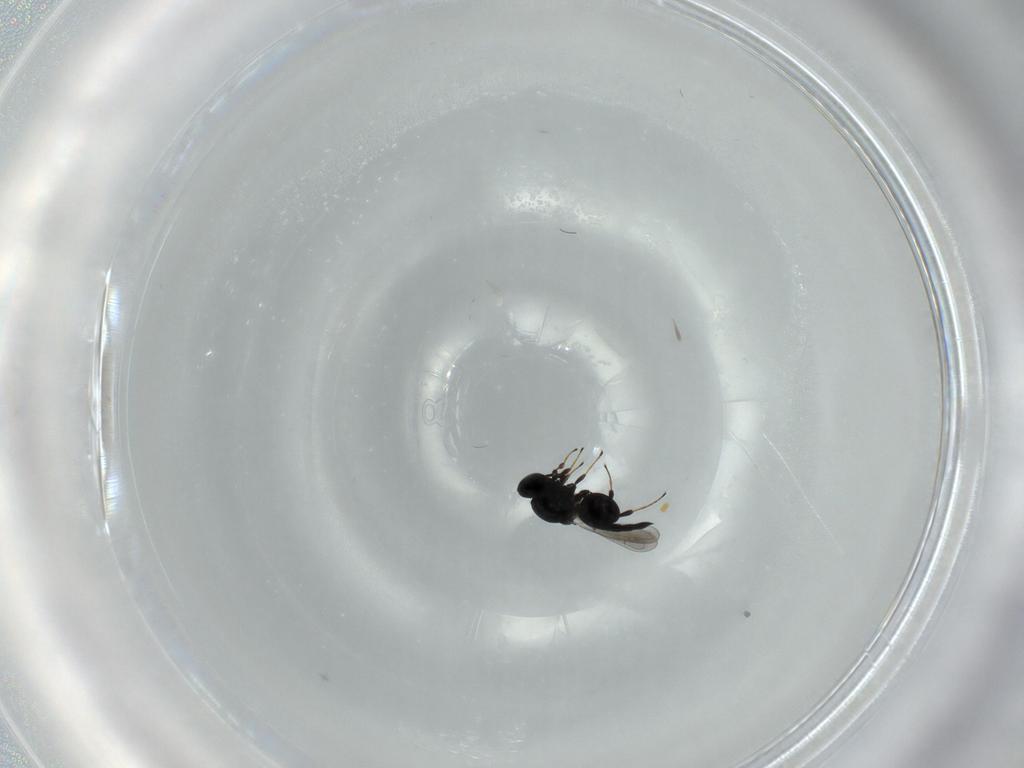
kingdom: Animalia
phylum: Arthropoda
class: Insecta
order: Hymenoptera
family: Platygastridae
